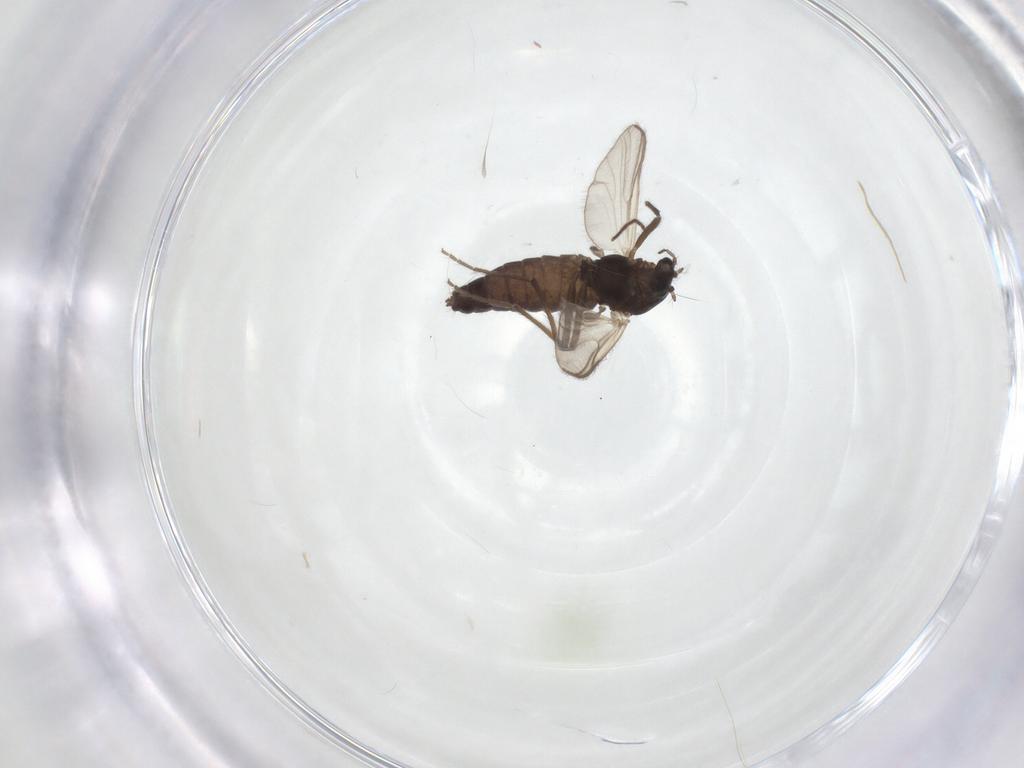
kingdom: Animalia
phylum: Arthropoda
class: Insecta
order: Diptera
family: Chironomidae
